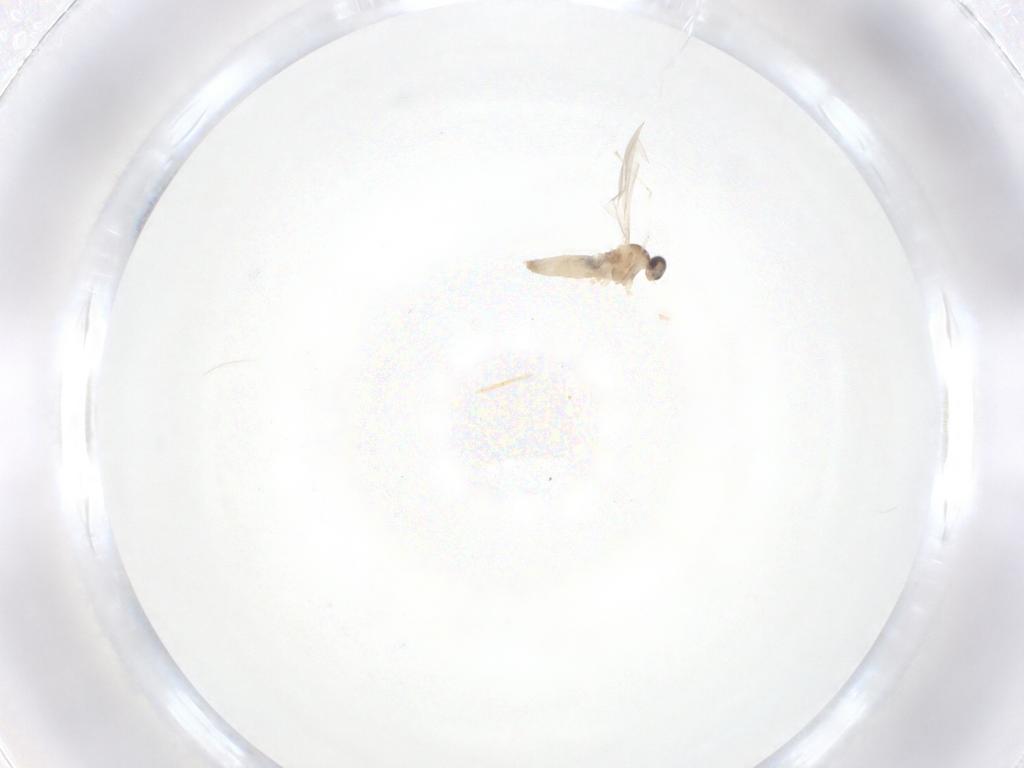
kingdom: Animalia
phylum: Arthropoda
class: Insecta
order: Diptera
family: Cecidomyiidae
